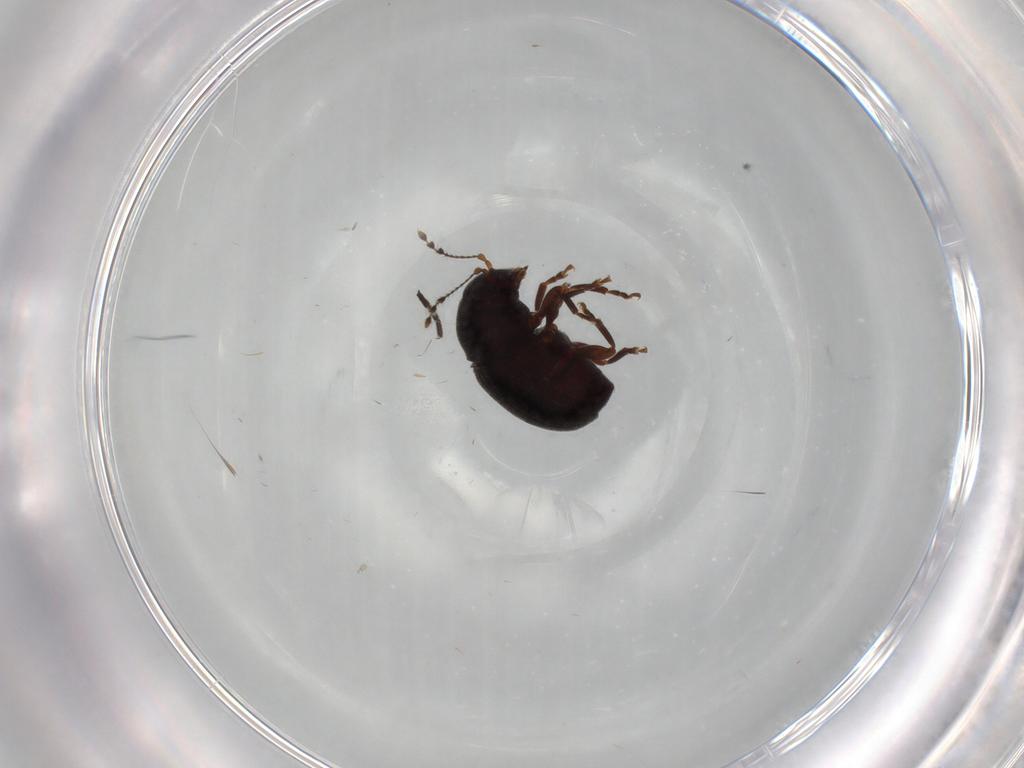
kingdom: Animalia
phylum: Arthropoda
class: Insecta
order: Coleoptera
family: Anthribidae
